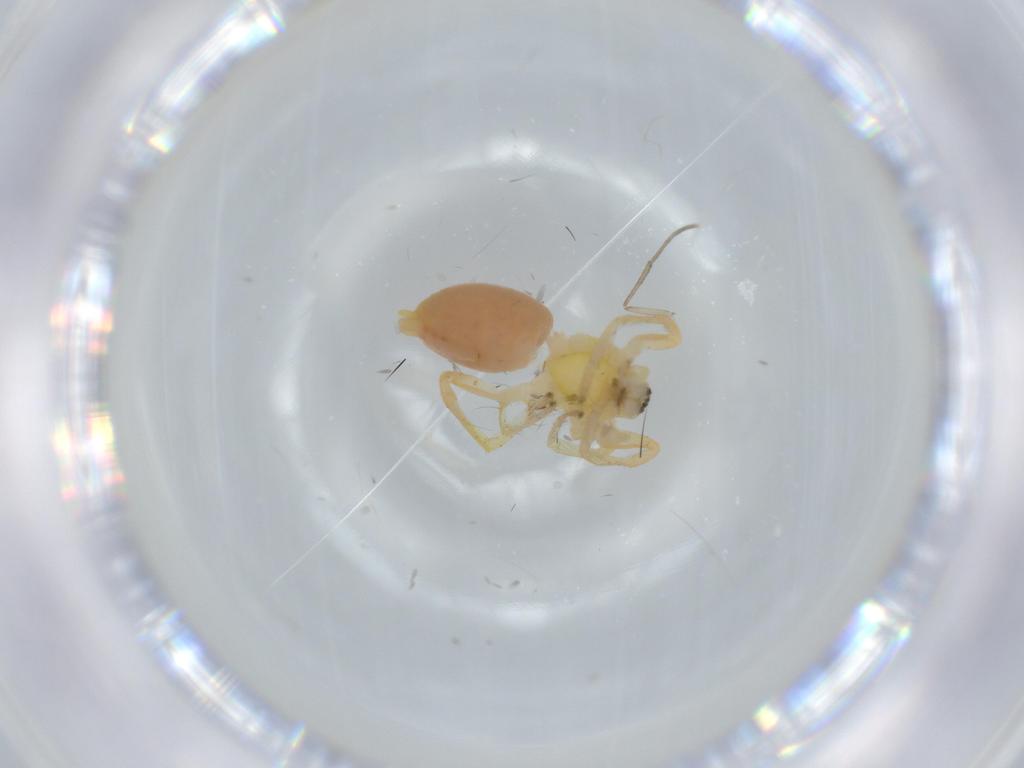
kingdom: Animalia
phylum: Arthropoda
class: Arachnida
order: Araneae
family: Anyphaenidae
